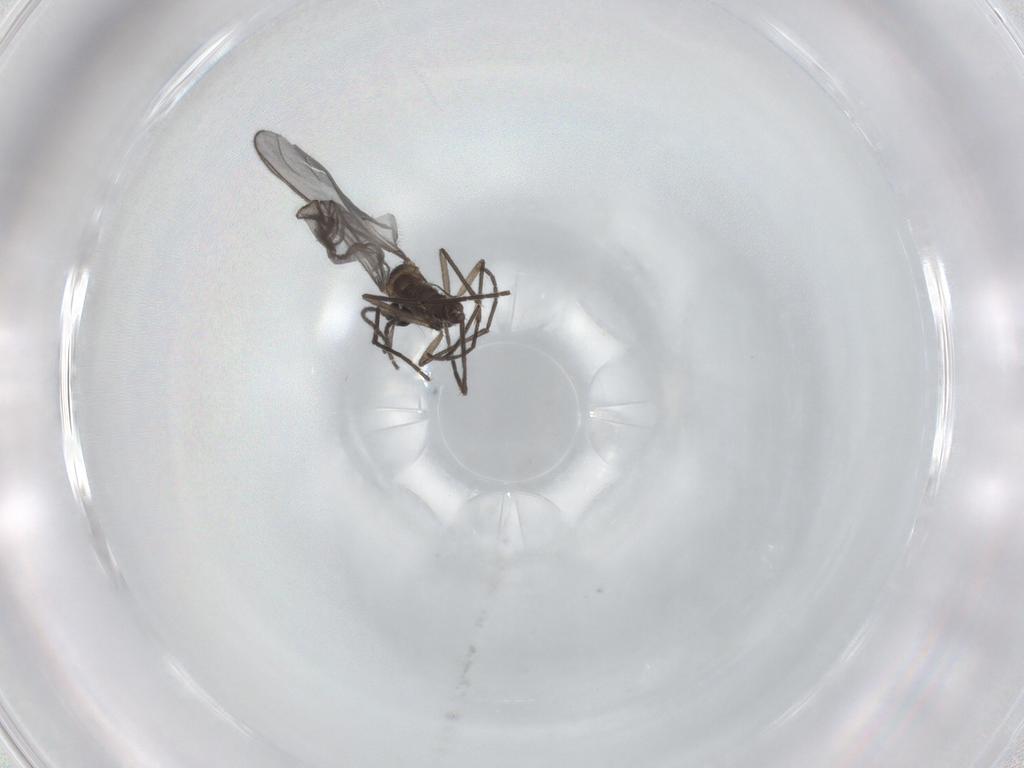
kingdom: Animalia
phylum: Arthropoda
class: Insecta
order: Diptera
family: Sciaridae
